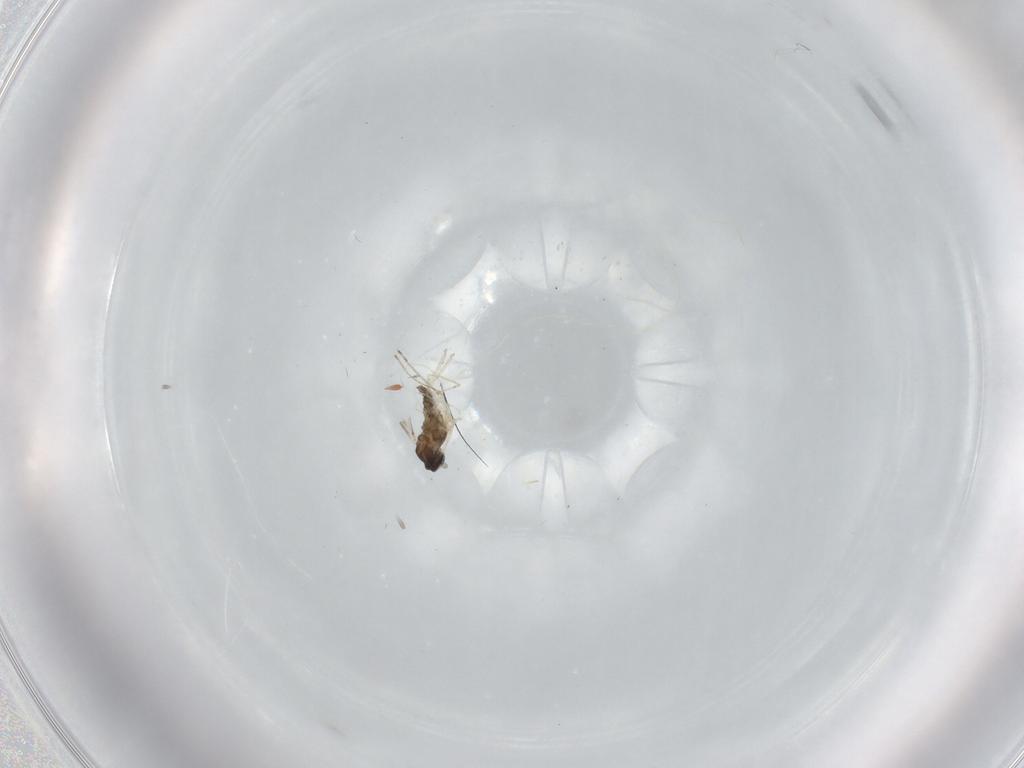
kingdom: Animalia
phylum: Arthropoda
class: Insecta
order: Diptera
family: Cecidomyiidae
